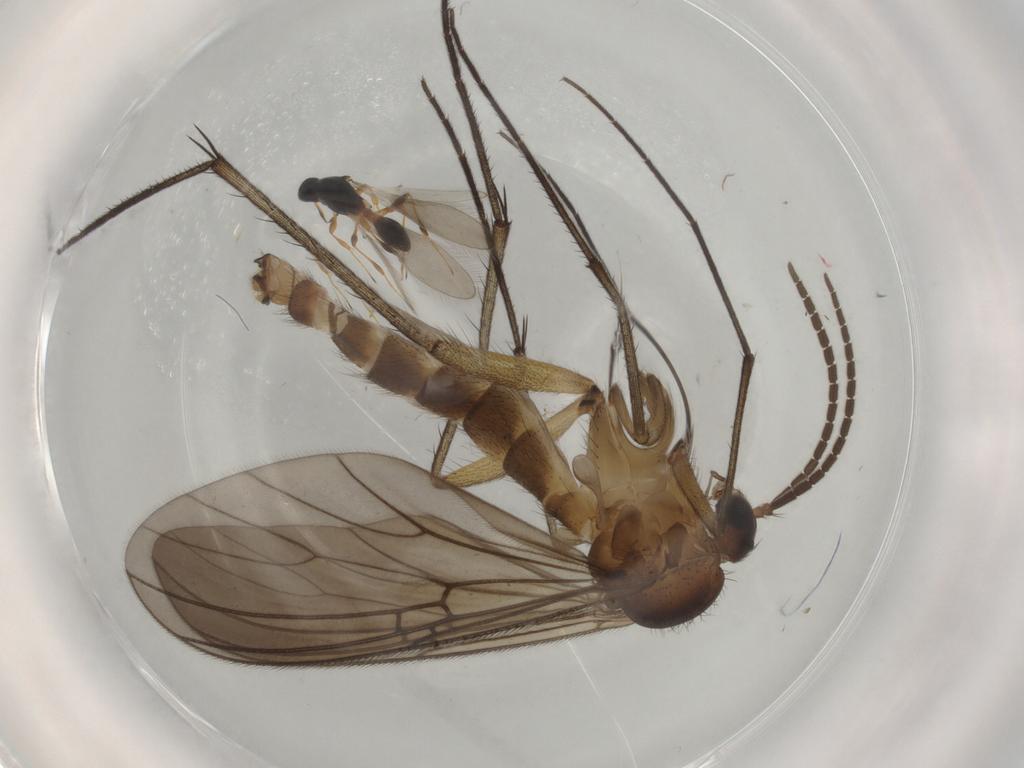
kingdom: Animalia
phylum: Arthropoda
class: Insecta
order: Diptera
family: Mycetophilidae
